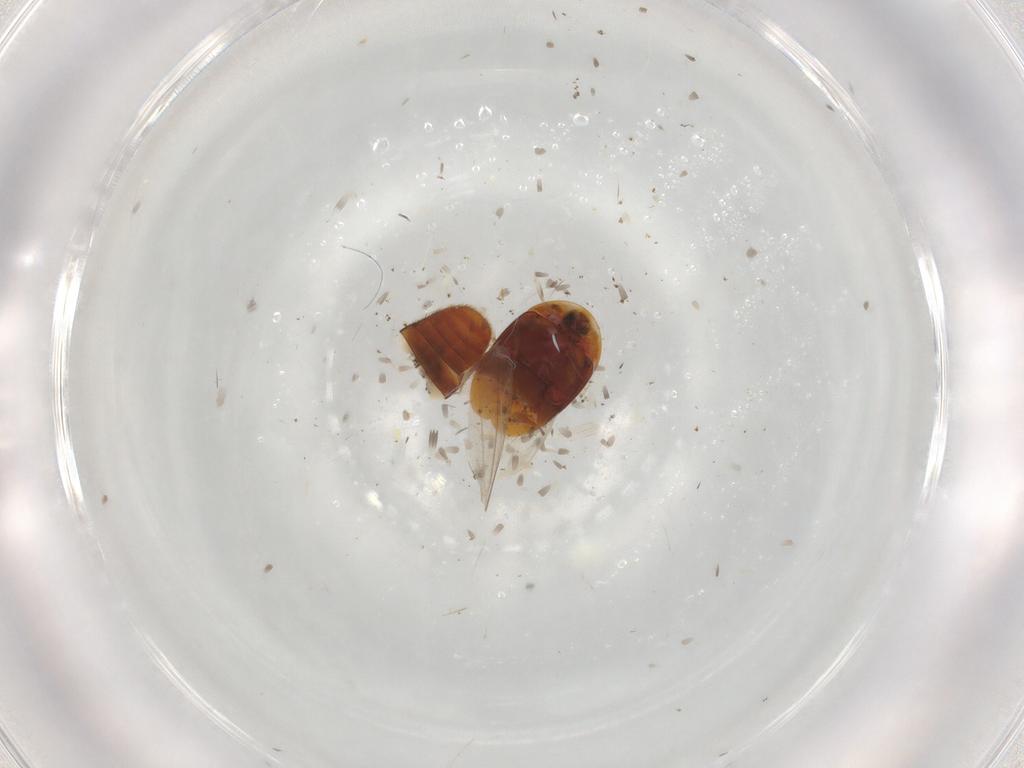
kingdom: Animalia
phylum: Arthropoda
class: Insecta
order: Coleoptera
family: Corylophidae
